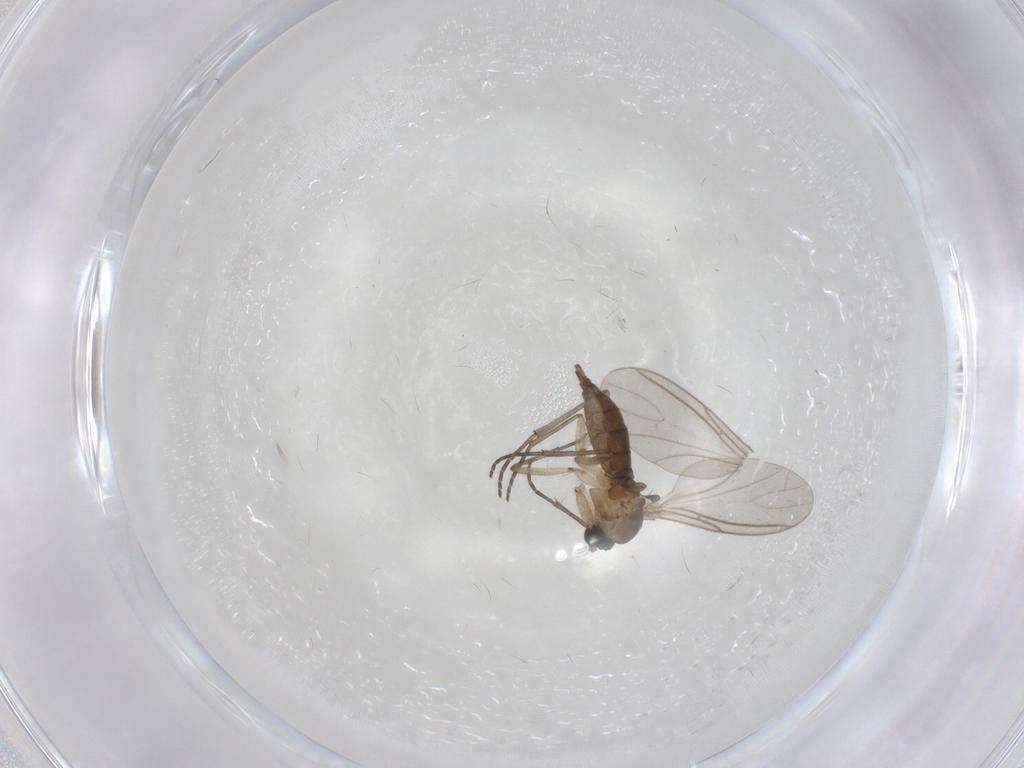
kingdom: Animalia
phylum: Arthropoda
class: Insecta
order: Diptera
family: Sciaridae
